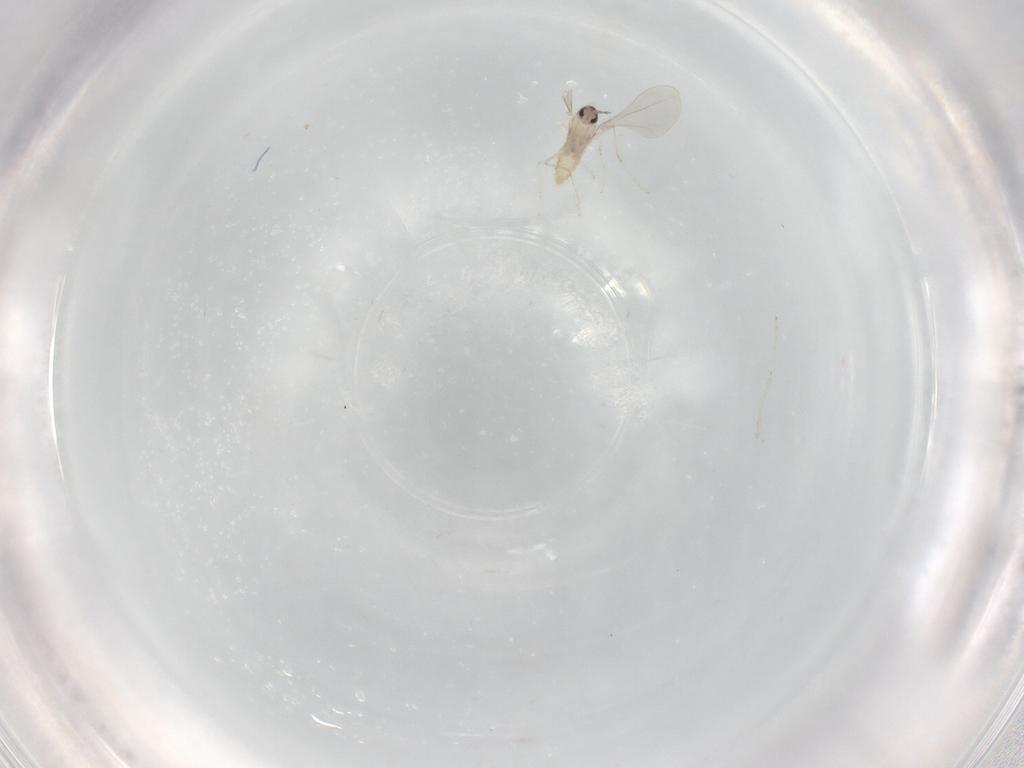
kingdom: Animalia
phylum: Arthropoda
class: Insecta
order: Diptera
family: Cecidomyiidae
